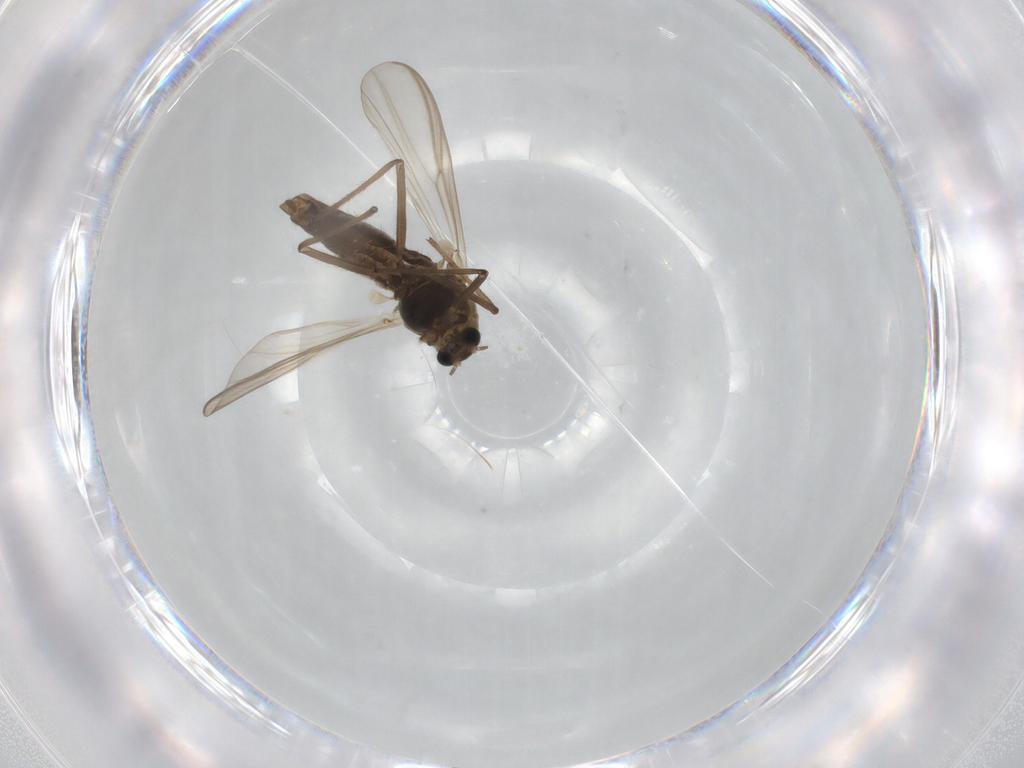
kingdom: Animalia
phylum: Arthropoda
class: Insecta
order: Diptera
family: Chironomidae
